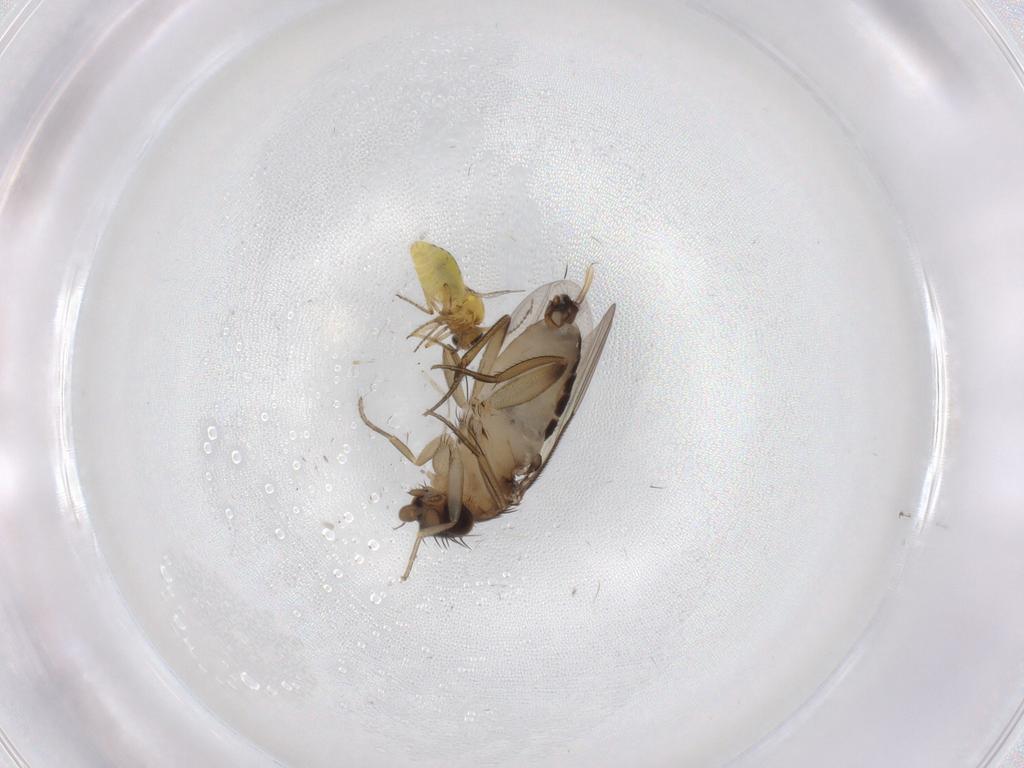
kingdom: Animalia
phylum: Arthropoda
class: Insecta
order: Diptera
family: Phoridae
